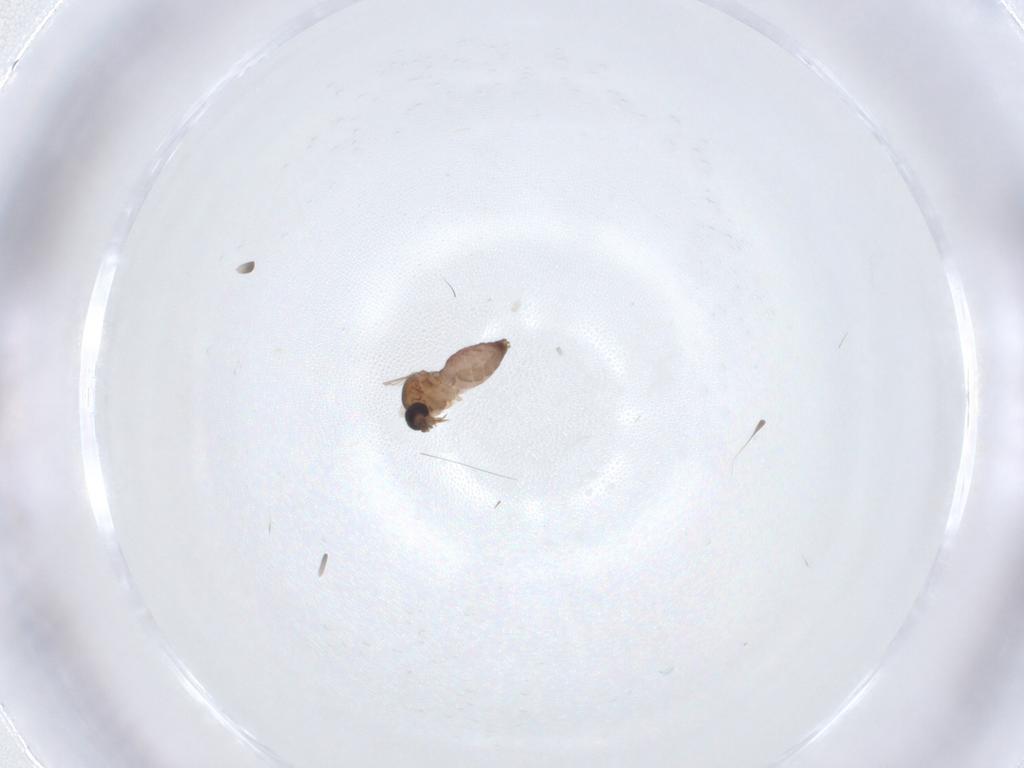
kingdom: Animalia
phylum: Arthropoda
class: Insecta
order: Diptera
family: Ceratopogonidae
